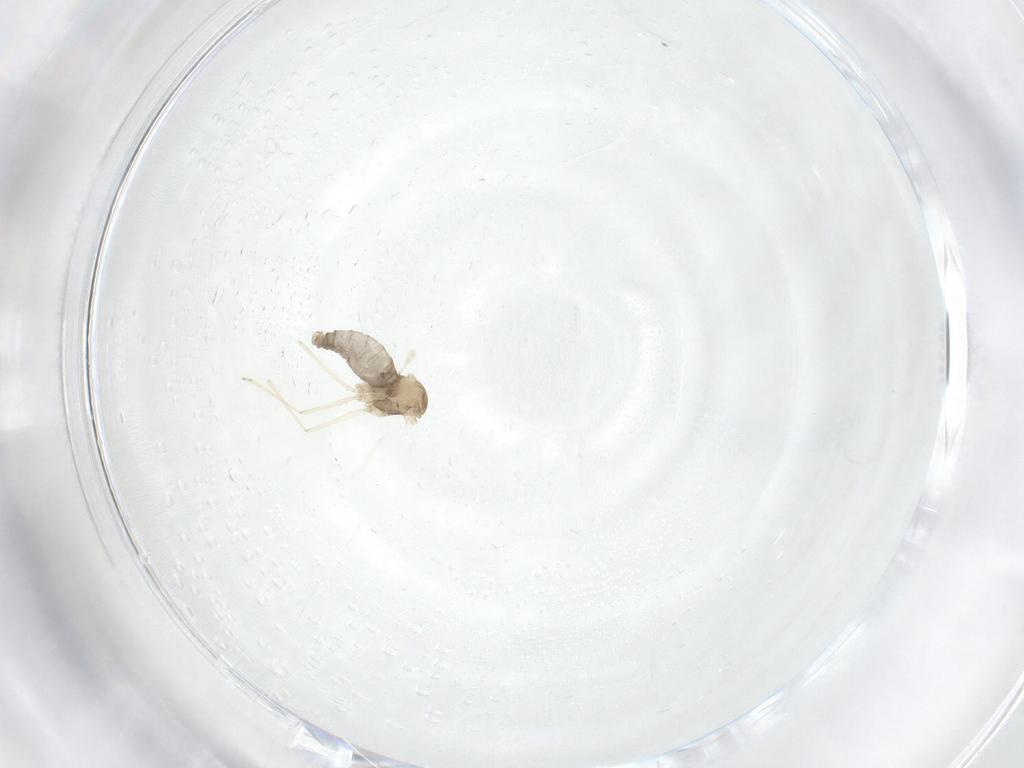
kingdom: Animalia
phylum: Arthropoda
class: Insecta
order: Diptera
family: Cecidomyiidae
